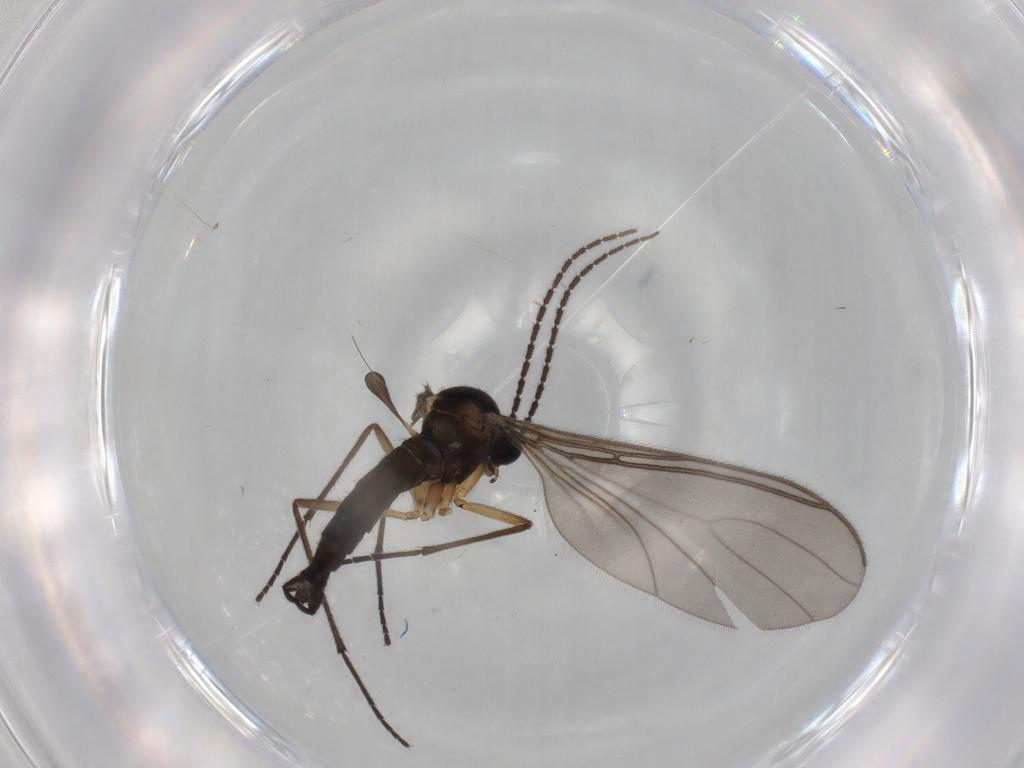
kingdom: Animalia
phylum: Arthropoda
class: Insecta
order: Diptera
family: Sciaridae
